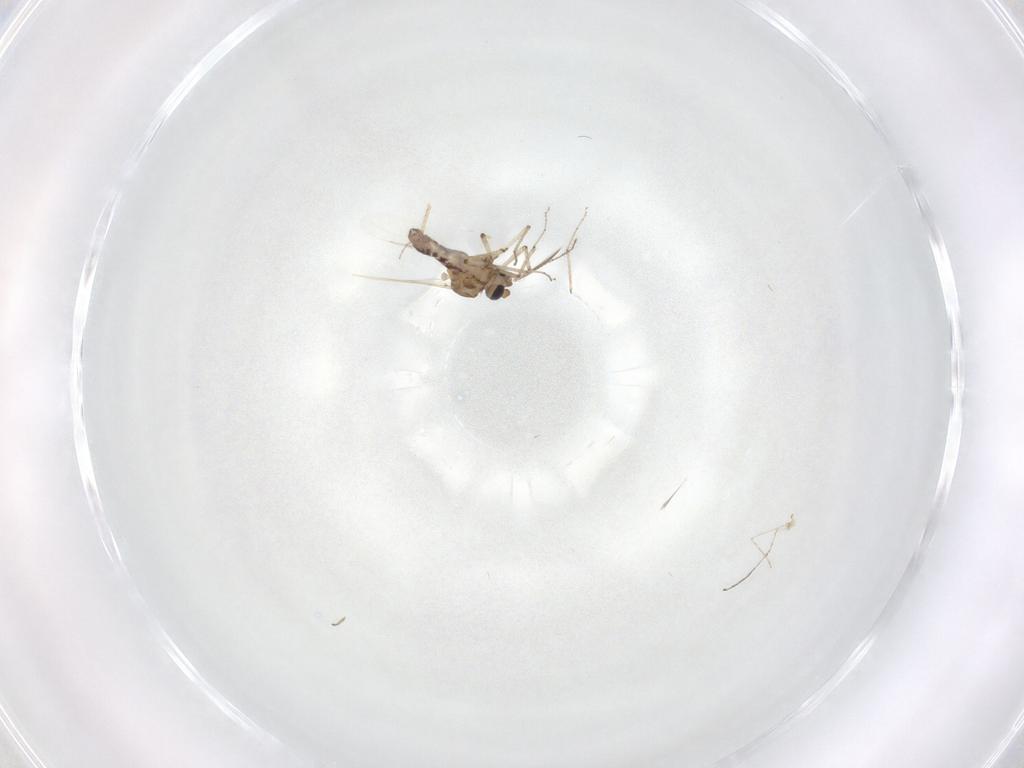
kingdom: Animalia
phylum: Arthropoda
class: Insecta
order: Diptera
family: Ceratopogonidae
